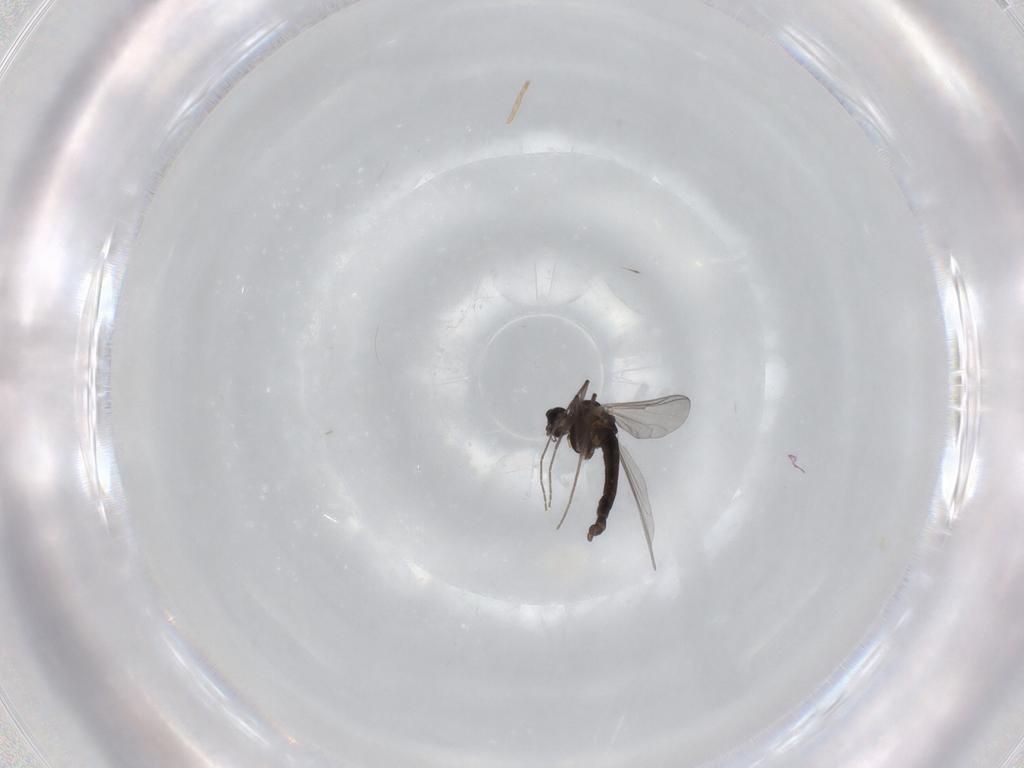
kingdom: Animalia
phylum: Arthropoda
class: Insecta
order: Diptera
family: Chironomidae
